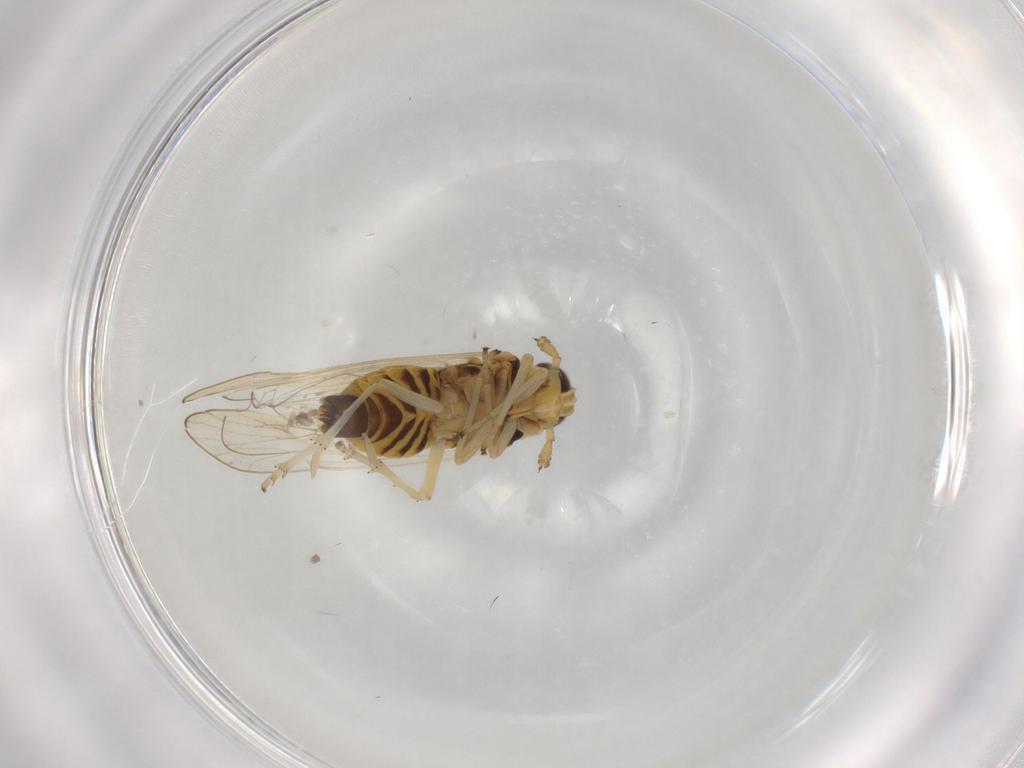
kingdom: Animalia
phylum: Arthropoda
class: Insecta
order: Hemiptera
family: Delphacidae
